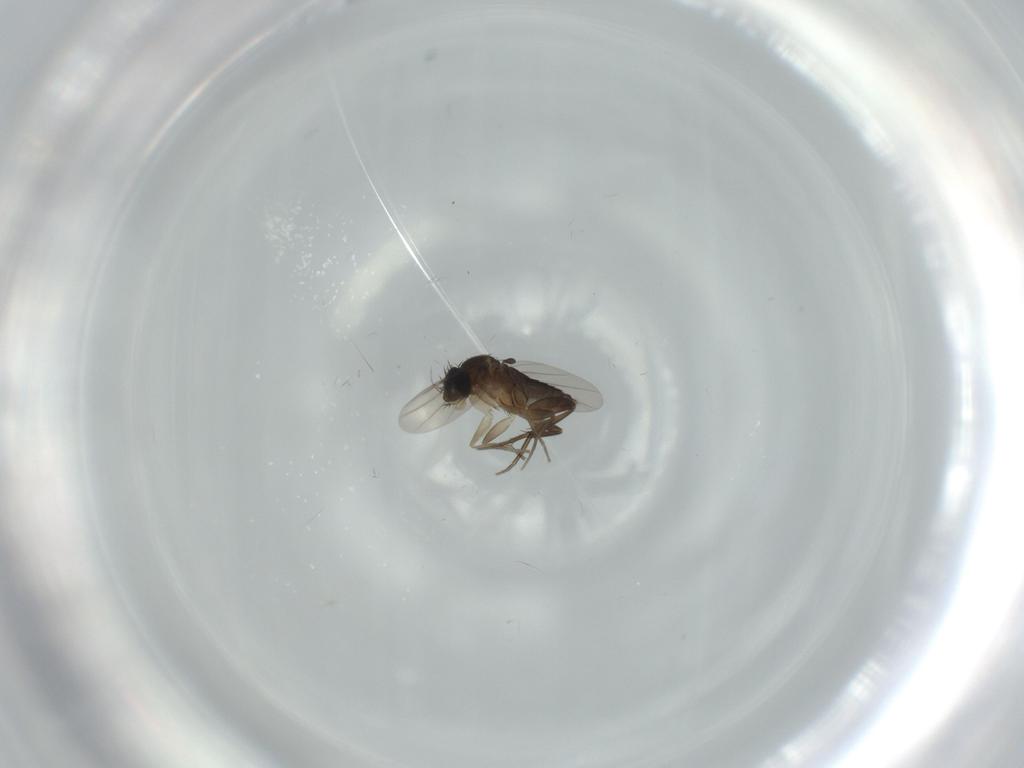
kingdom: Animalia
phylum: Arthropoda
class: Insecta
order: Diptera
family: Phoridae
